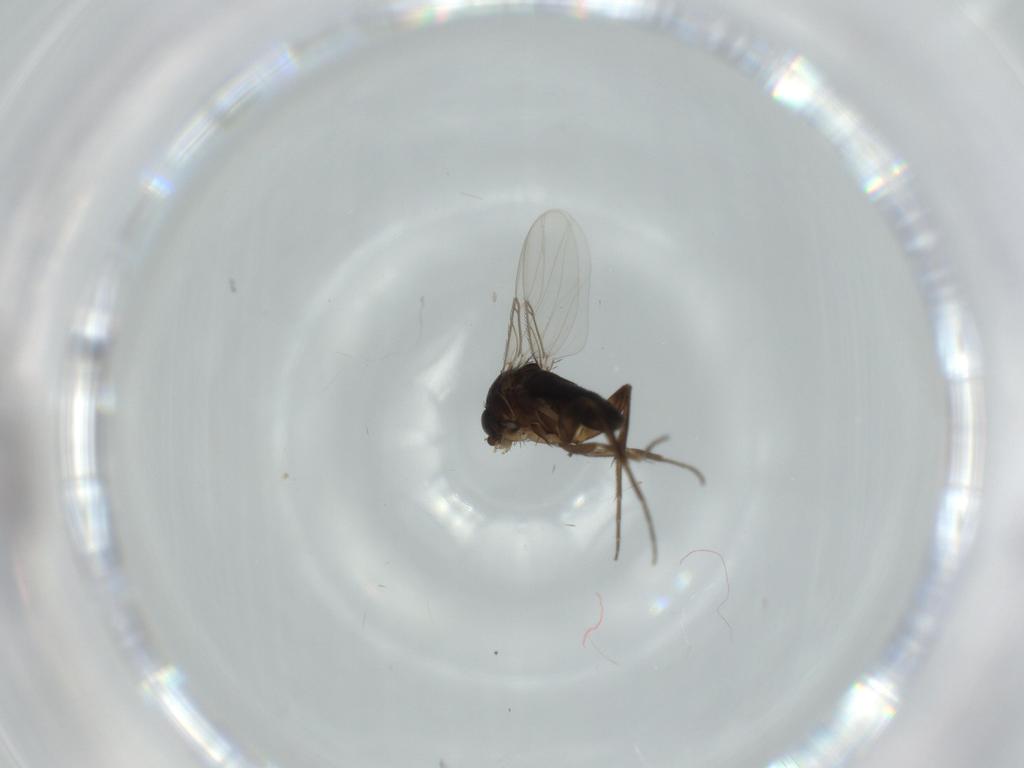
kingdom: Animalia
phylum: Arthropoda
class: Insecta
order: Diptera
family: Phoridae
